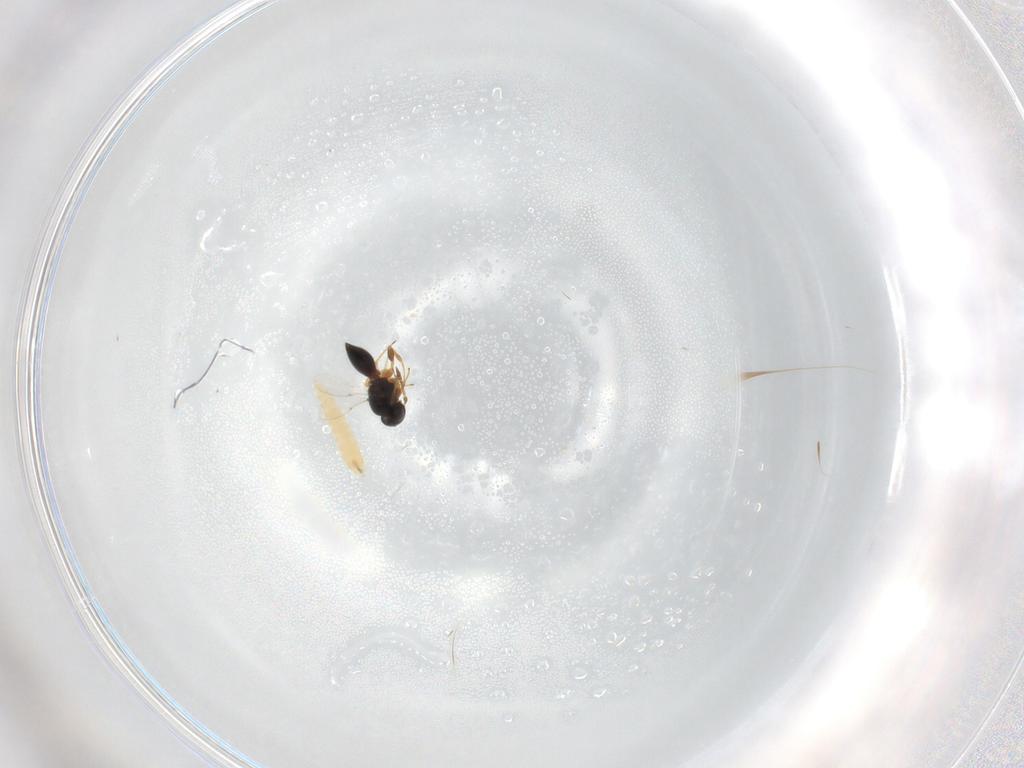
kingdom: Animalia
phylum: Arthropoda
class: Insecta
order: Diptera
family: Tachinidae
